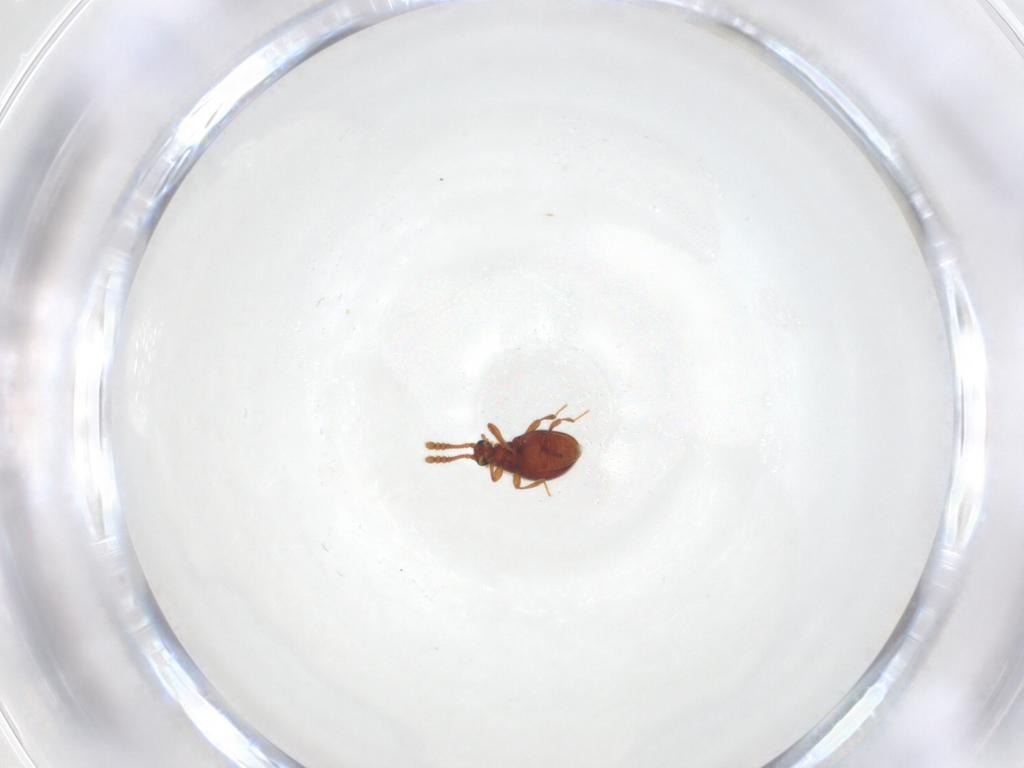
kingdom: Animalia
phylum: Arthropoda
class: Insecta
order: Coleoptera
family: Staphylinidae
